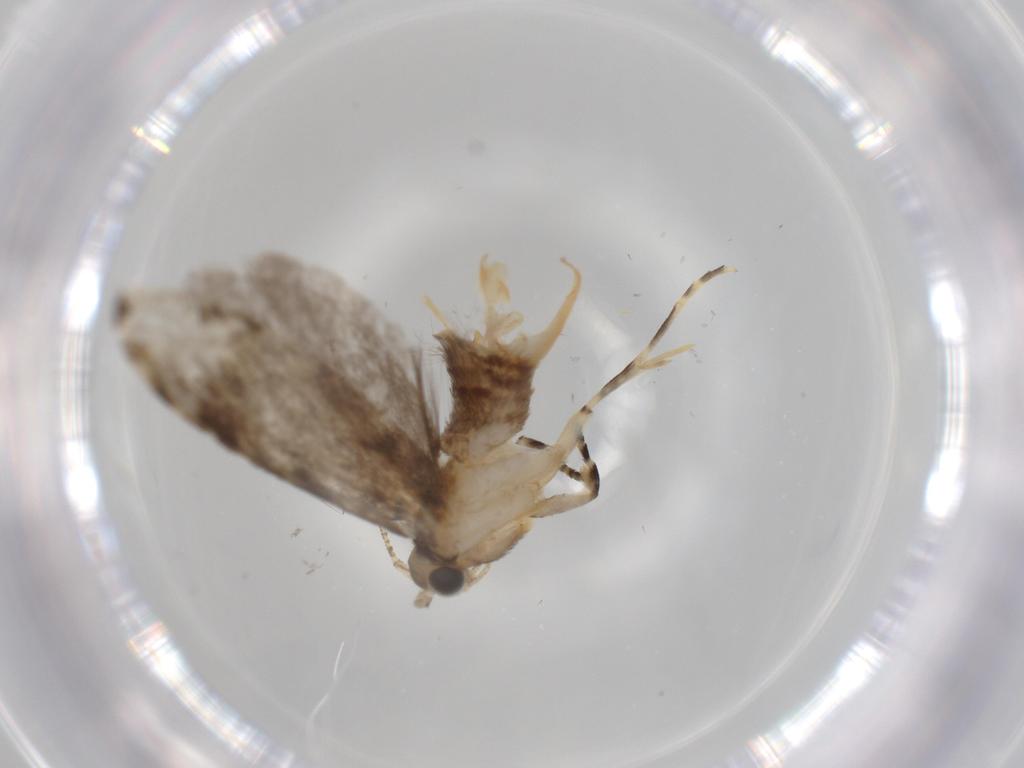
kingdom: Animalia
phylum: Arthropoda
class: Insecta
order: Lepidoptera
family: Tineidae
